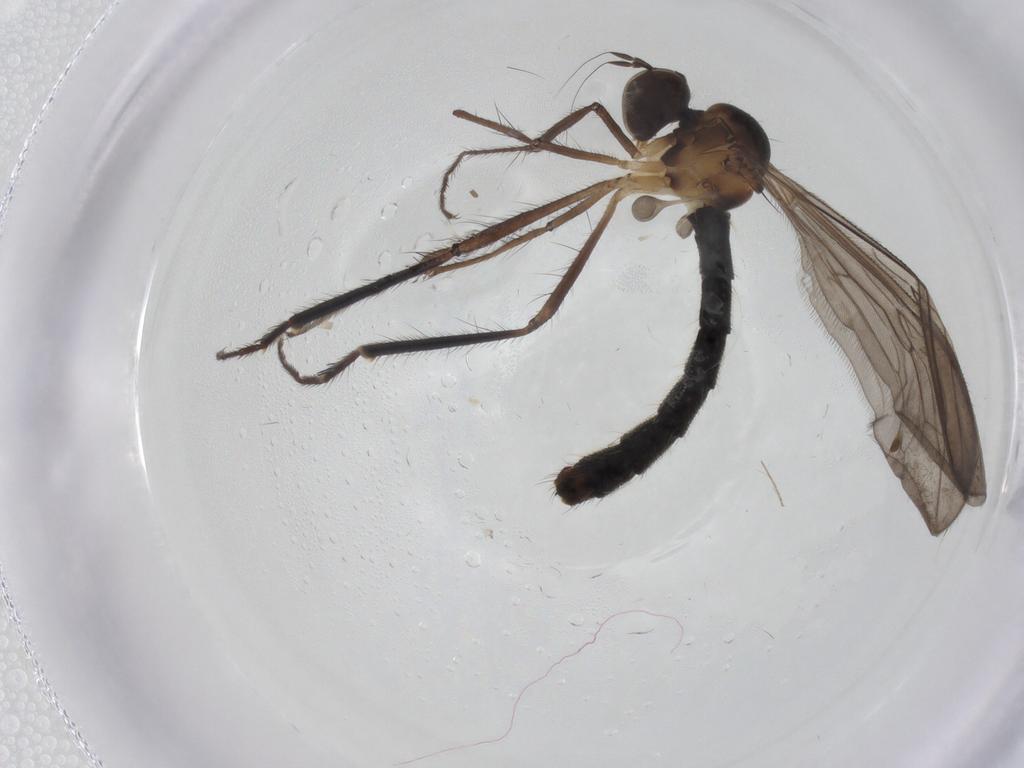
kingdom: Animalia
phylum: Arthropoda
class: Insecta
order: Diptera
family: Hybotidae
